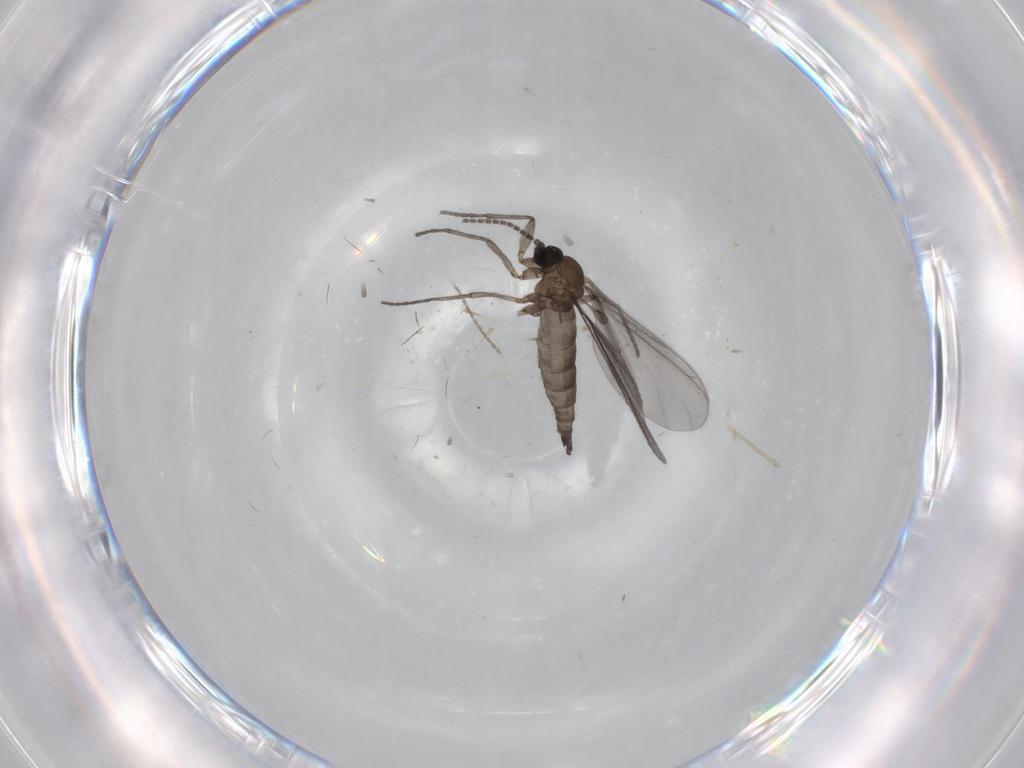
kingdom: Animalia
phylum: Arthropoda
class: Insecta
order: Diptera
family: Sciaridae
